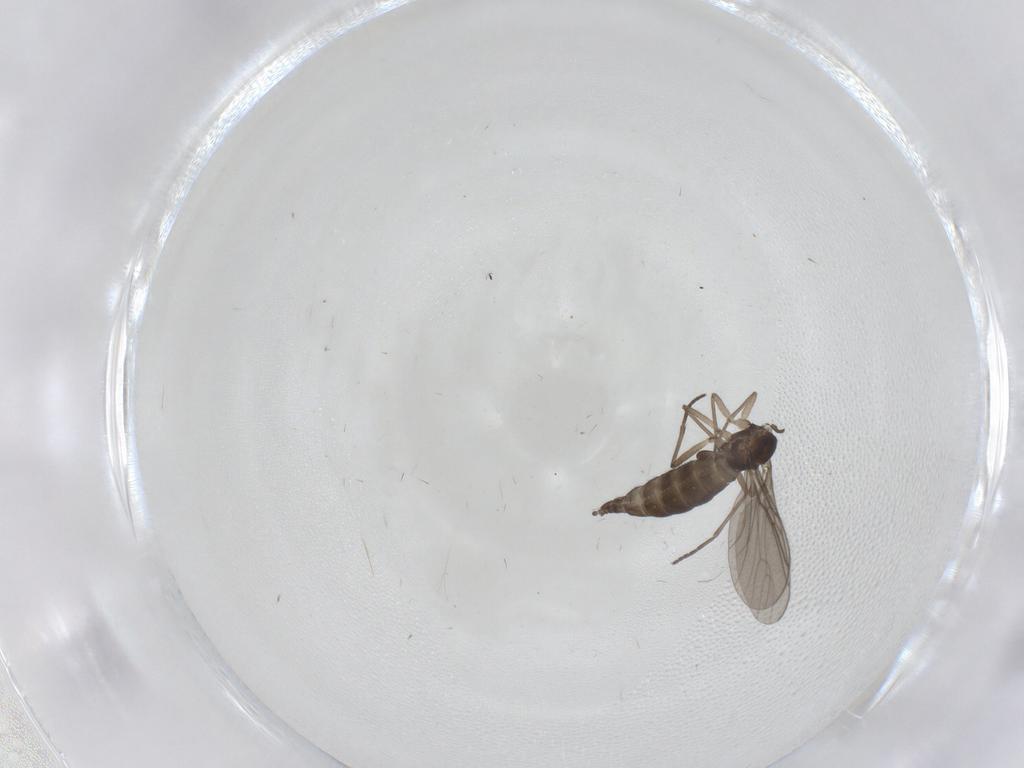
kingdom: Animalia
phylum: Arthropoda
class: Insecta
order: Diptera
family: Sciaridae
